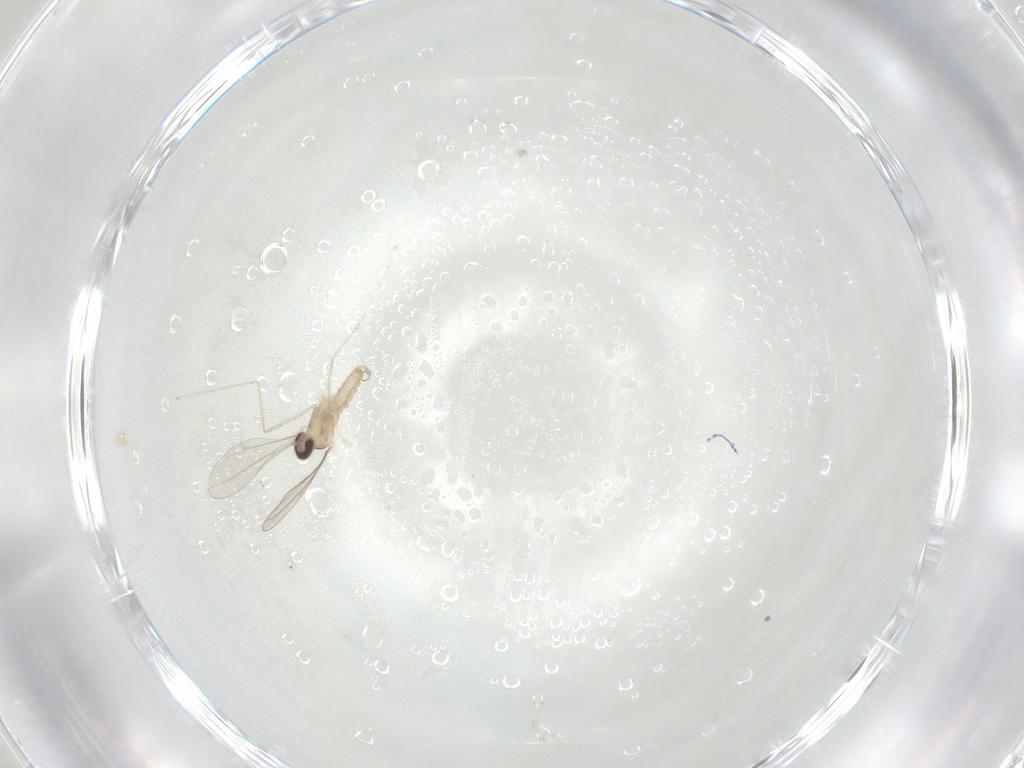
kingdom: Animalia
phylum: Arthropoda
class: Insecta
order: Diptera
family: Cecidomyiidae
